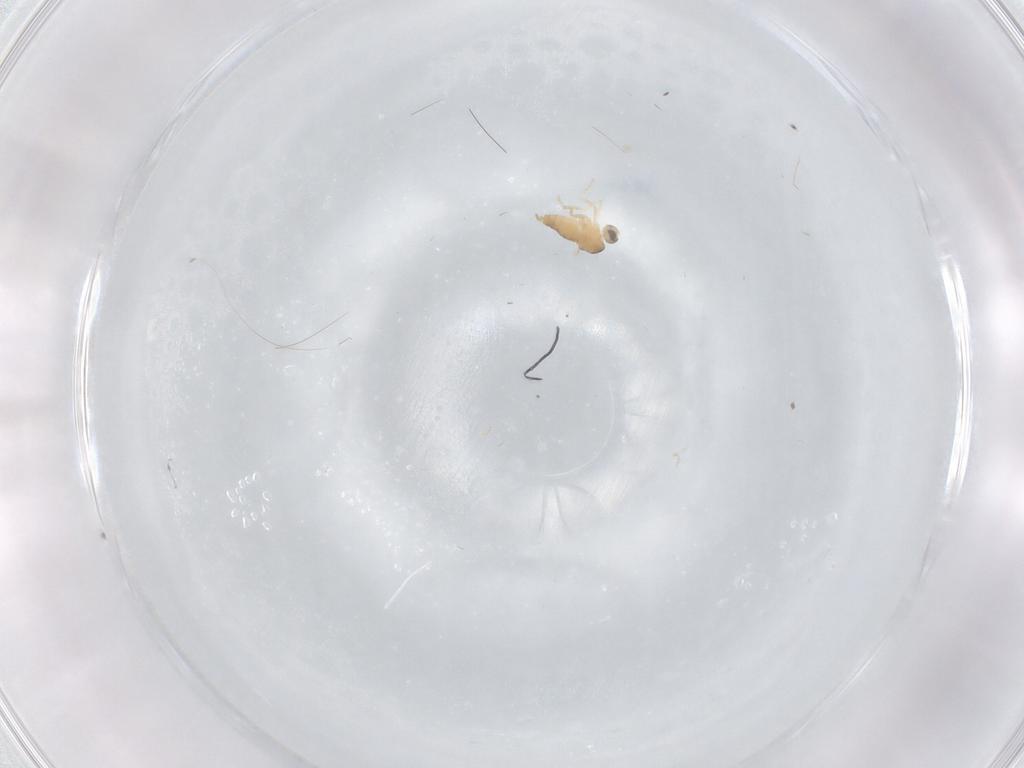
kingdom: Animalia
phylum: Arthropoda
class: Insecta
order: Diptera
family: Cecidomyiidae
